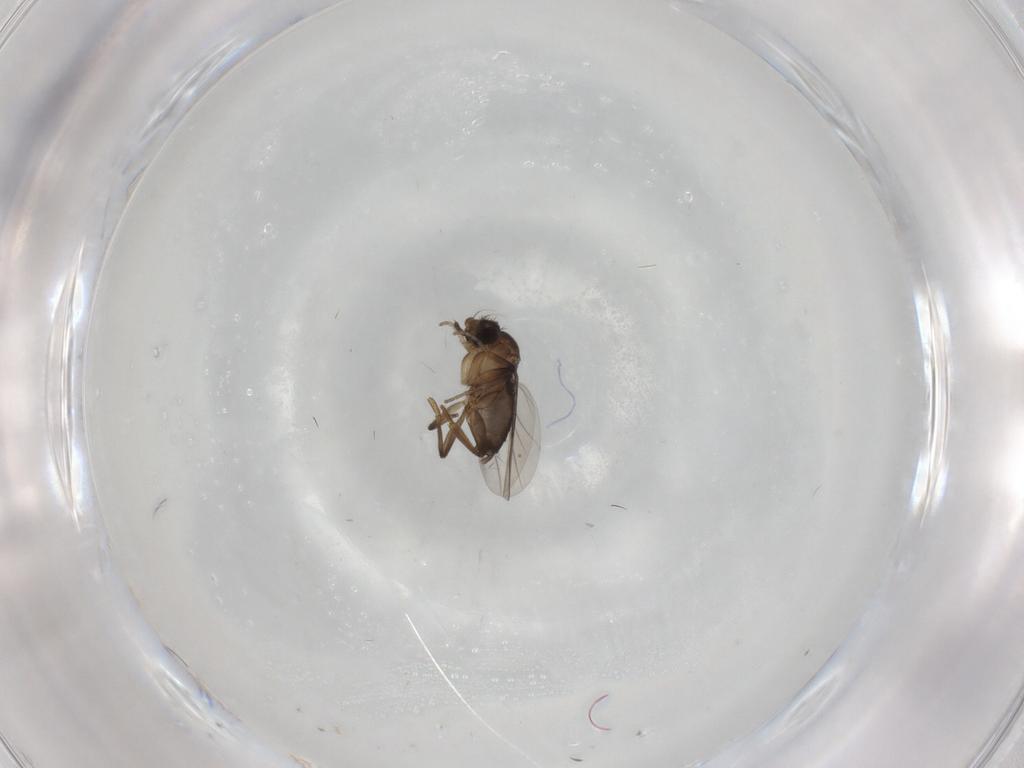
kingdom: Animalia
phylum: Arthropoda
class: Insecta
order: Diptera
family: Phoridae
